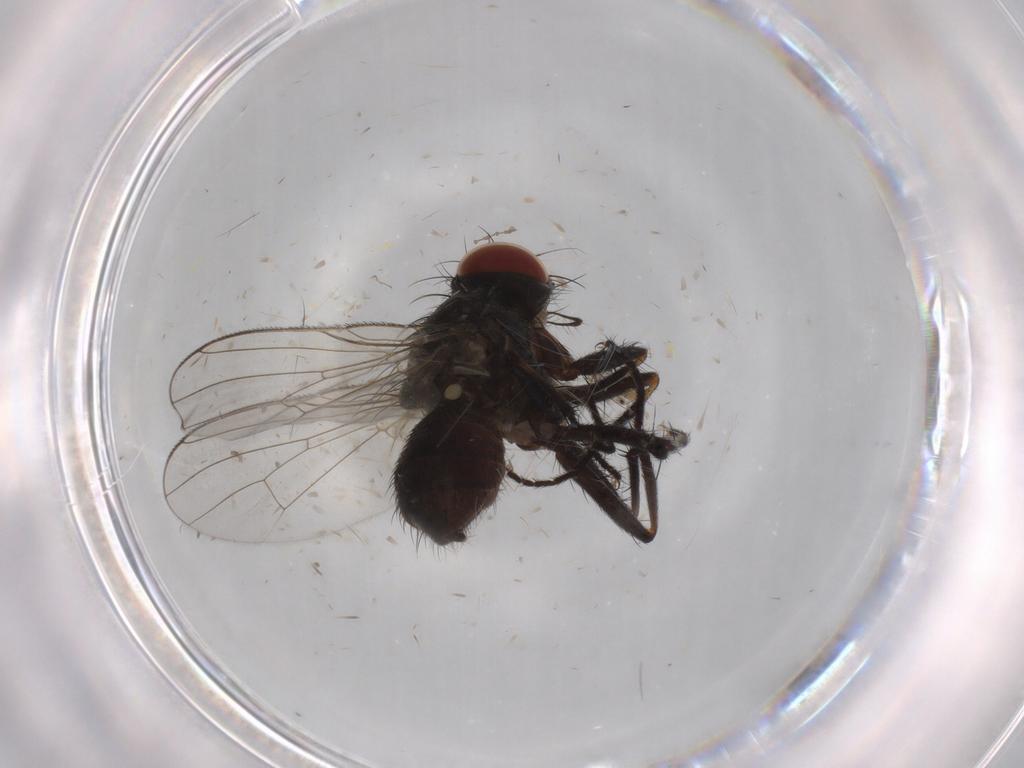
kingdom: Animalia
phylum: Arthropoda
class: Insecta
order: Diptera
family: Muscidae
